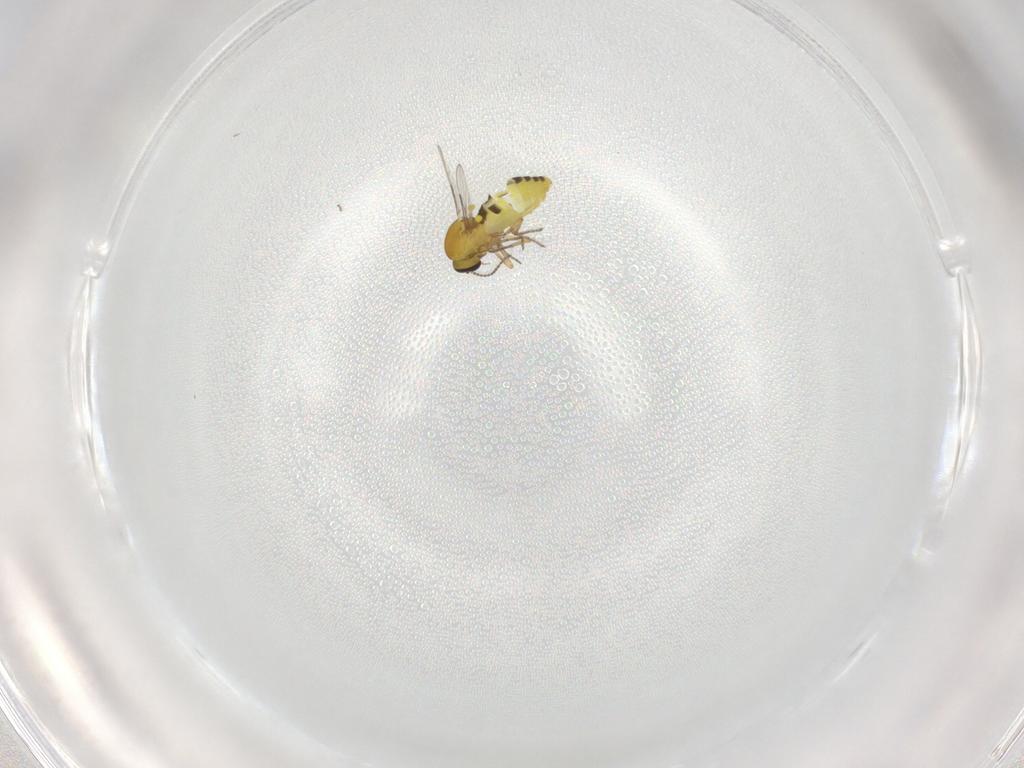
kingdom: Animalia
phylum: Arthropoda
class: Insecta
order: Diptera
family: Ceratopogonidae
